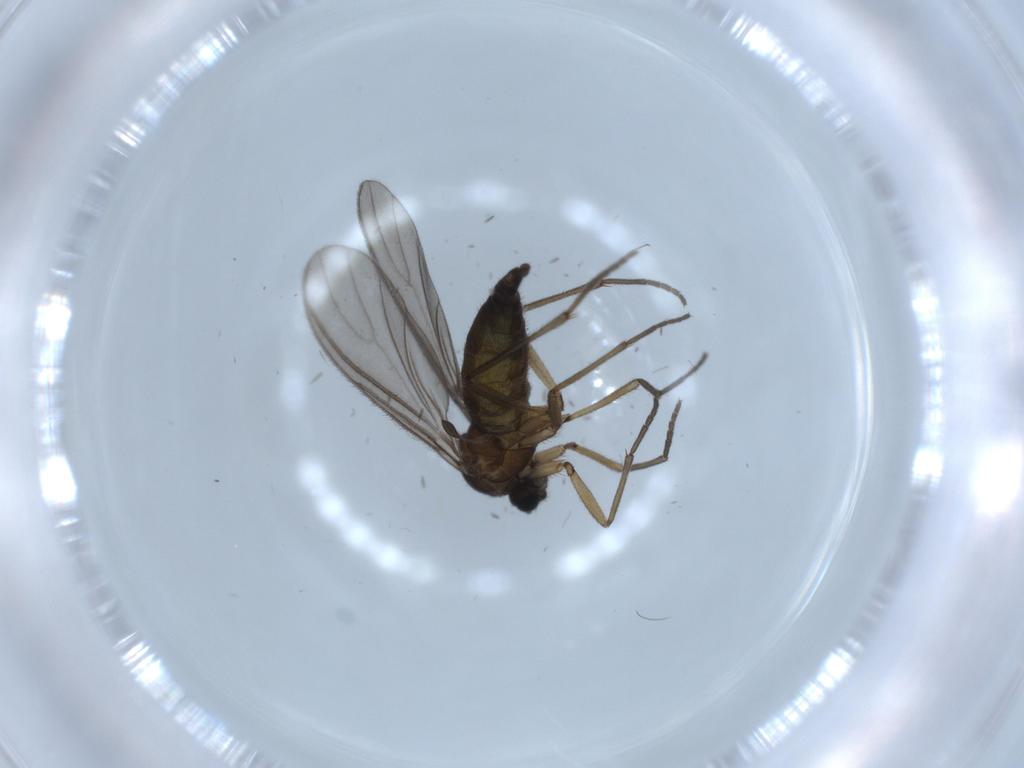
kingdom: Animalia
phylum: Arthropoda
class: Insecta
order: Diptera
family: Sciaridae
